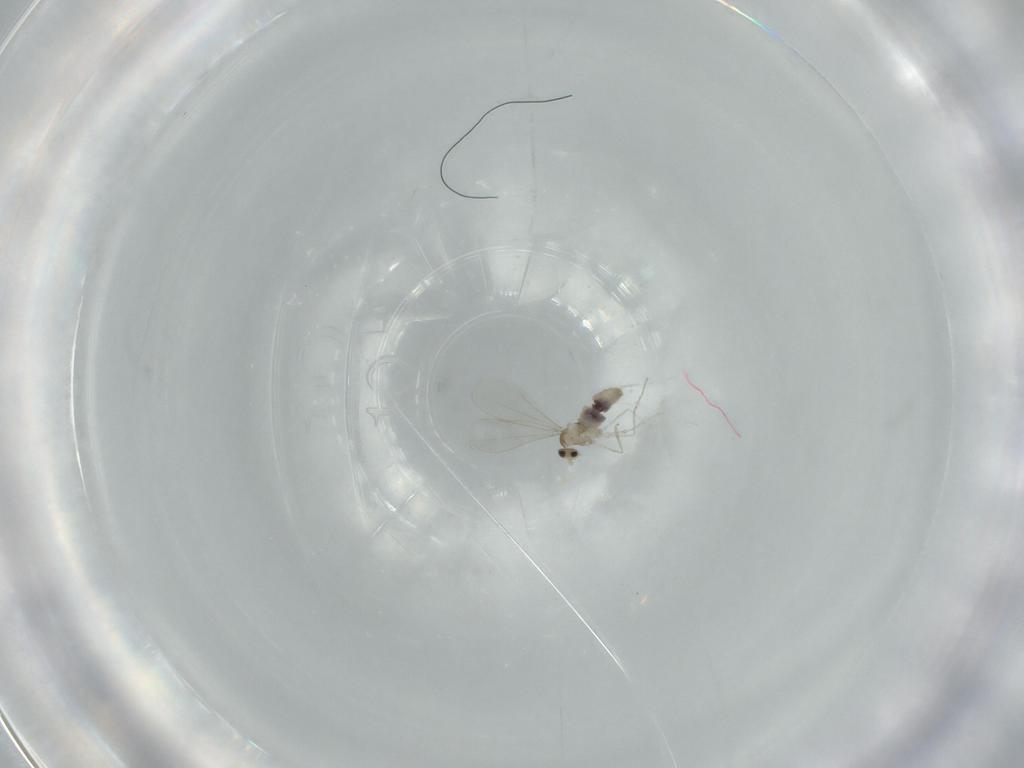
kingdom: Animalia
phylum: Arthropoda
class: Insecta
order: Diptera
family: Cecidomyiidae
